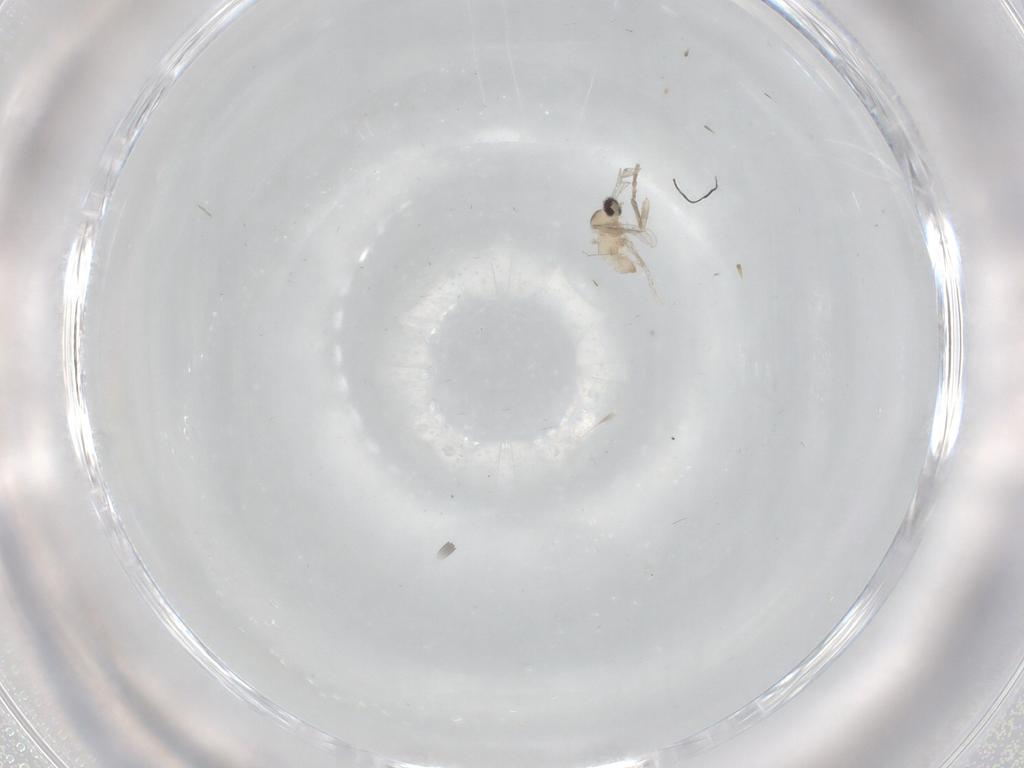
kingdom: Animalia
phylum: Arthropoda
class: Insecta
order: Diptera
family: Cecidomyiidae
